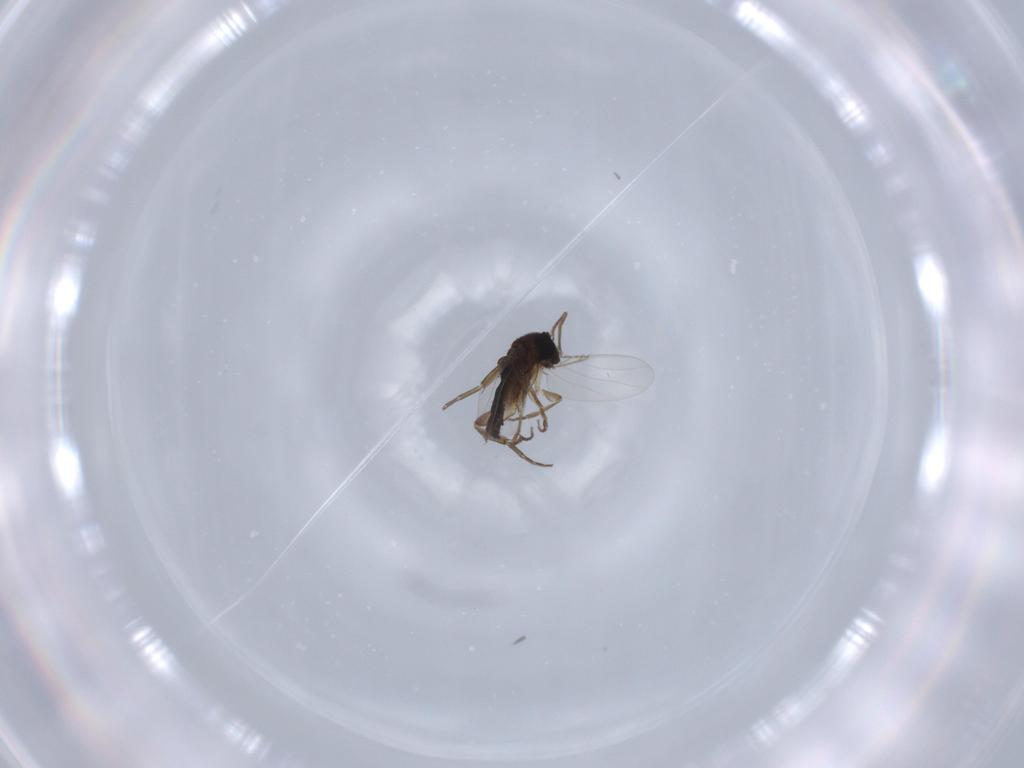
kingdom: Animalia
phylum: Arthropoda
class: Insecta
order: Diptera
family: Phoridae
